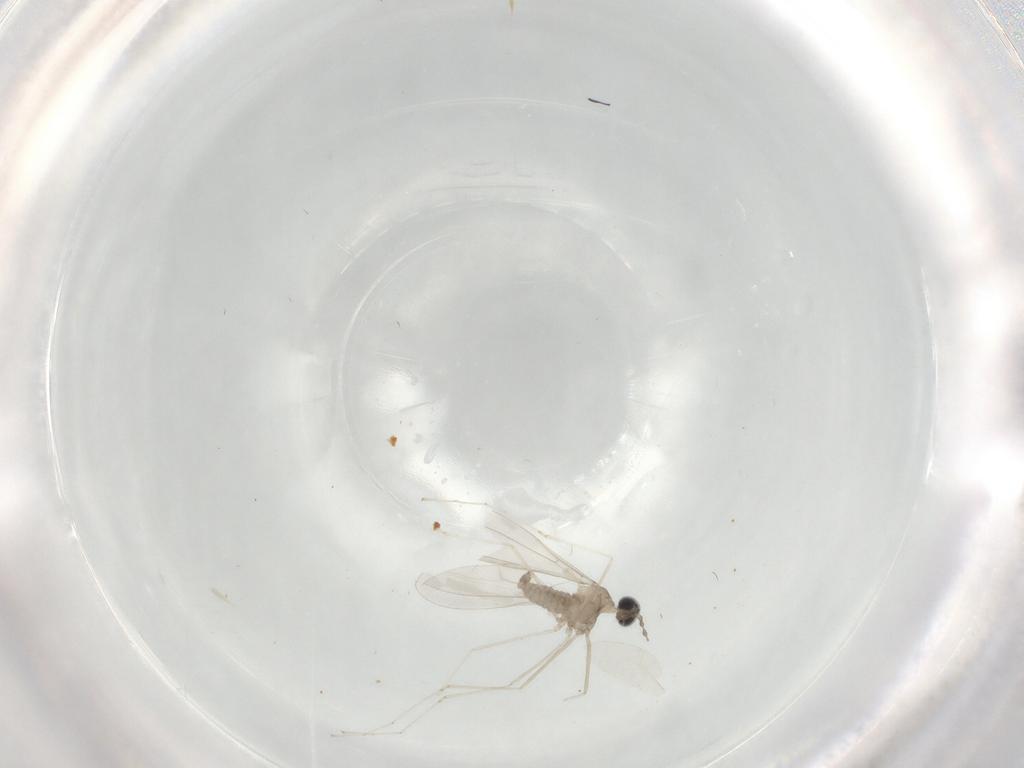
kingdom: Animalia
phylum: Arthropoda
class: Insecta
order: Diptera
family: Cecidomyiidae
